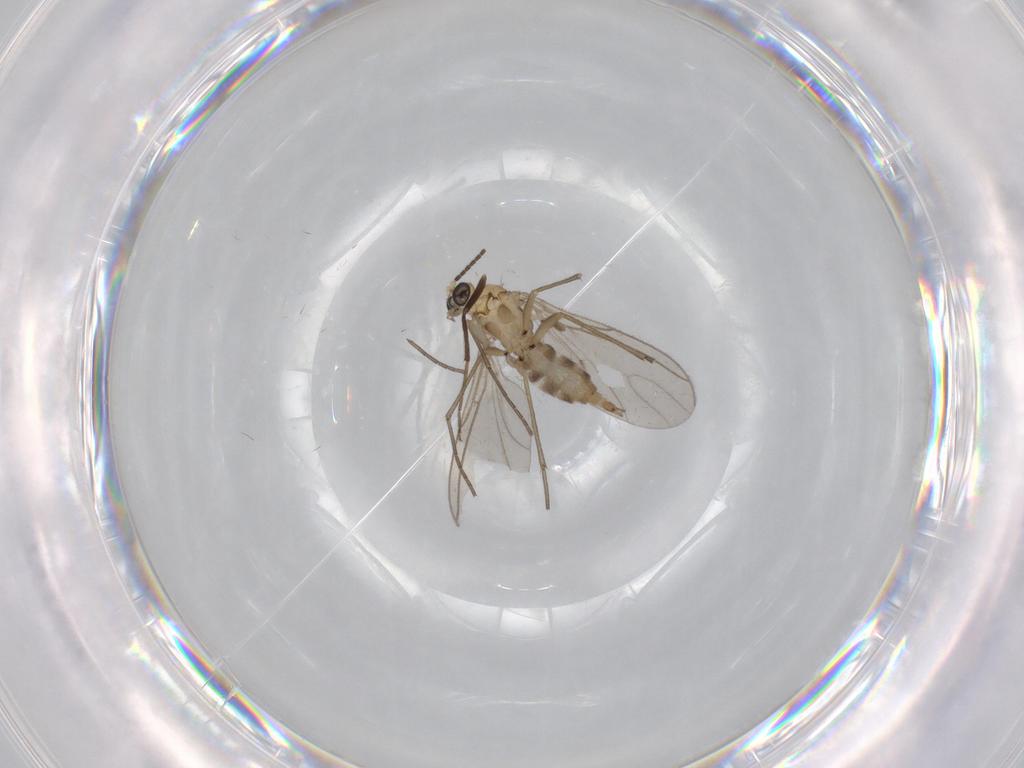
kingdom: Animalia
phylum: Arthropoda
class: Insecta
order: Diptera
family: Sciaridae
